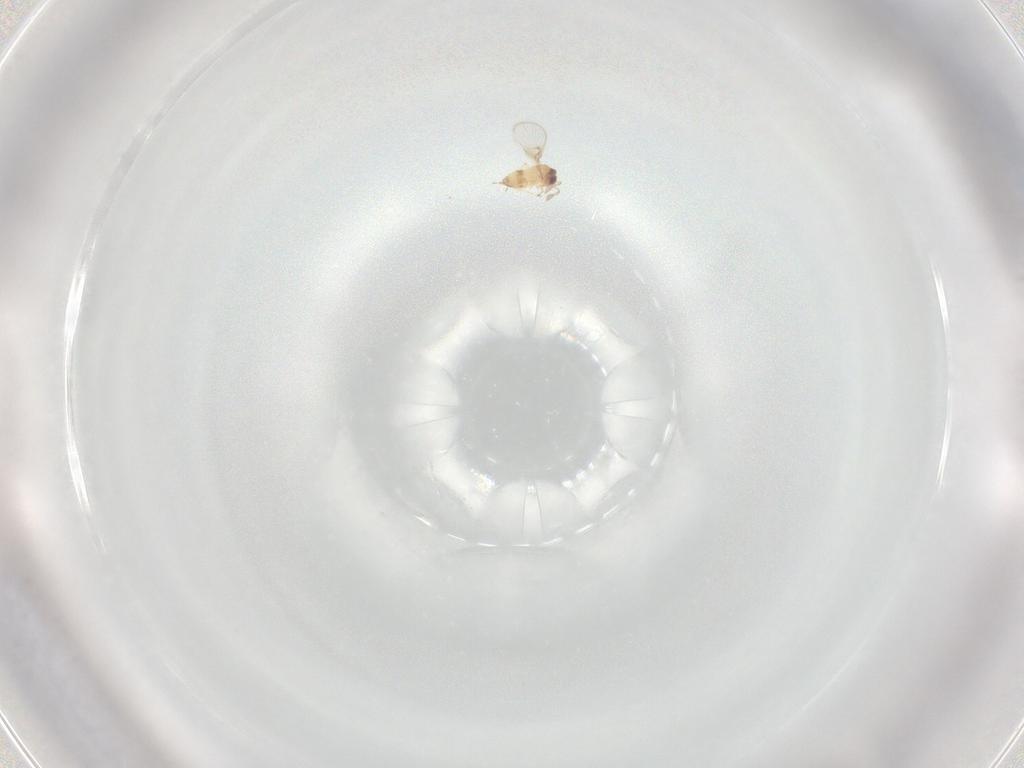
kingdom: Animalia
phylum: Arthropoda
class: Insecta
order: Hymenoptera
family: Trichogrammatidae
